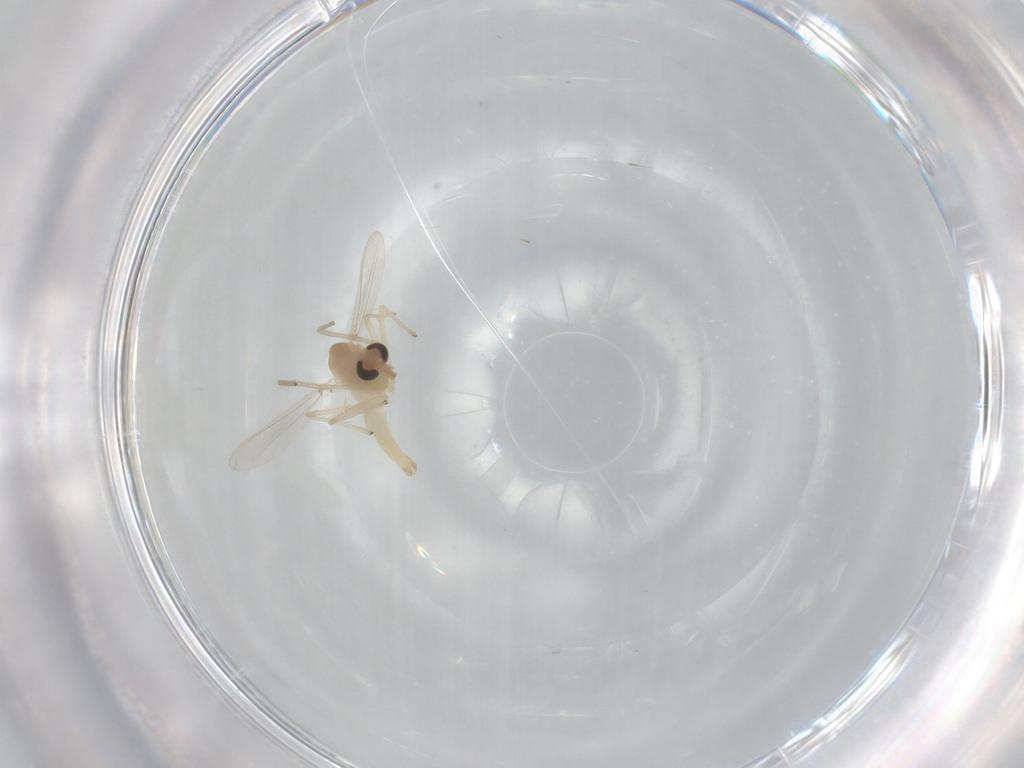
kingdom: Animalia
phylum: Arthropoda
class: Insecta
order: Diptera
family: Chironomidae
